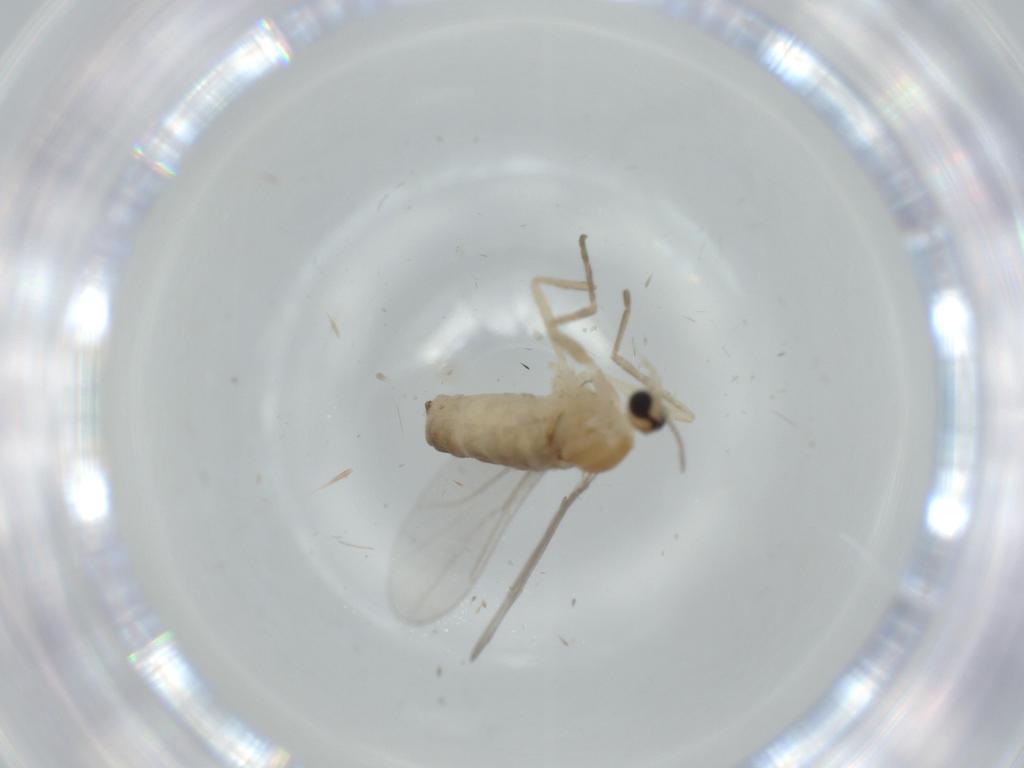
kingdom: Animalia
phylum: Arthropoda
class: Insecta
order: Diptera
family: Cecidomyiidae
